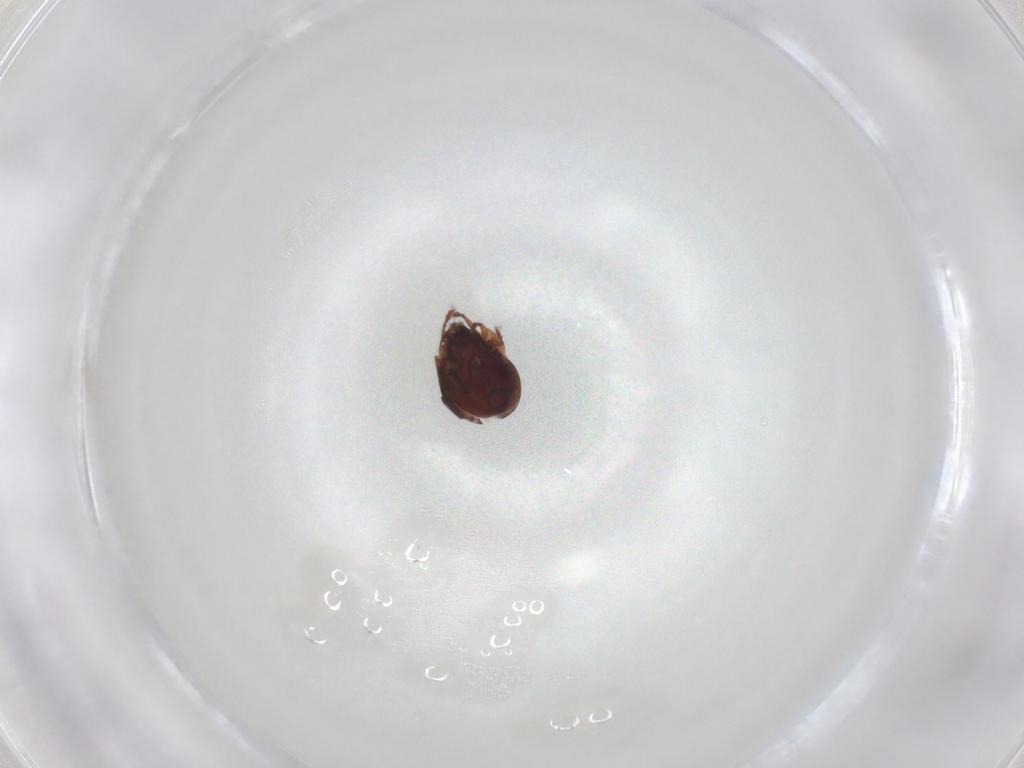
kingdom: Animalia
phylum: Arthropoda
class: Arachnida
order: Sarcoptiformes
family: Humerobatidae
